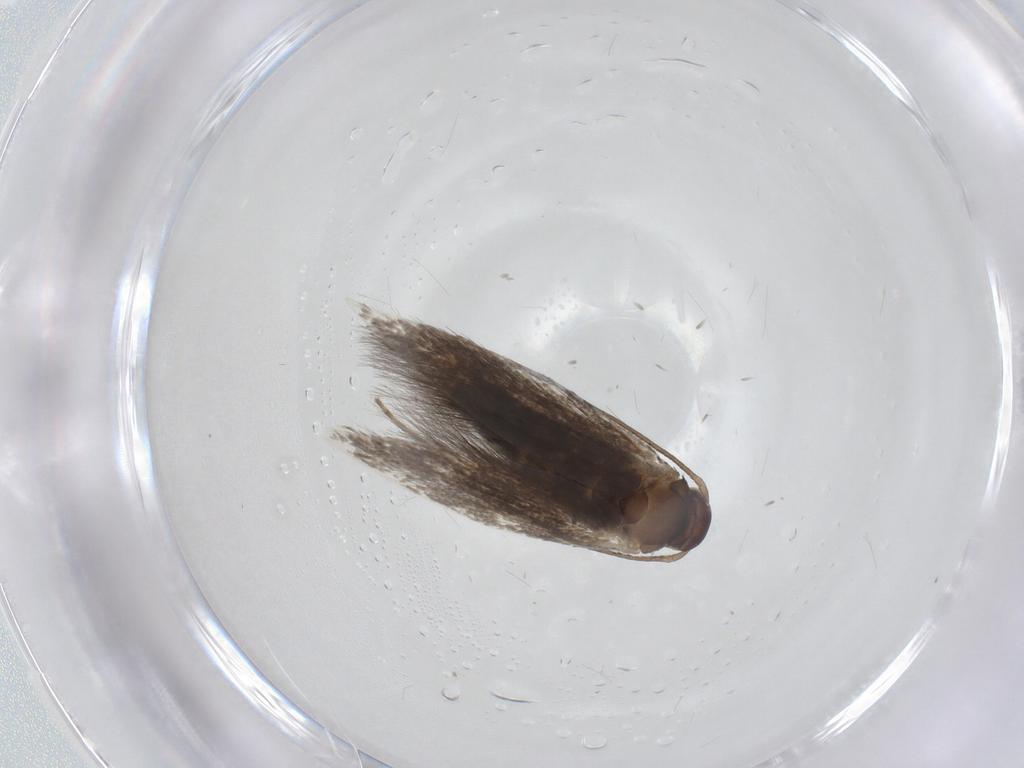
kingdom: Animalia
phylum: Arthropoda
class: Insecta
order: Lepidoptera
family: Elachistidae
